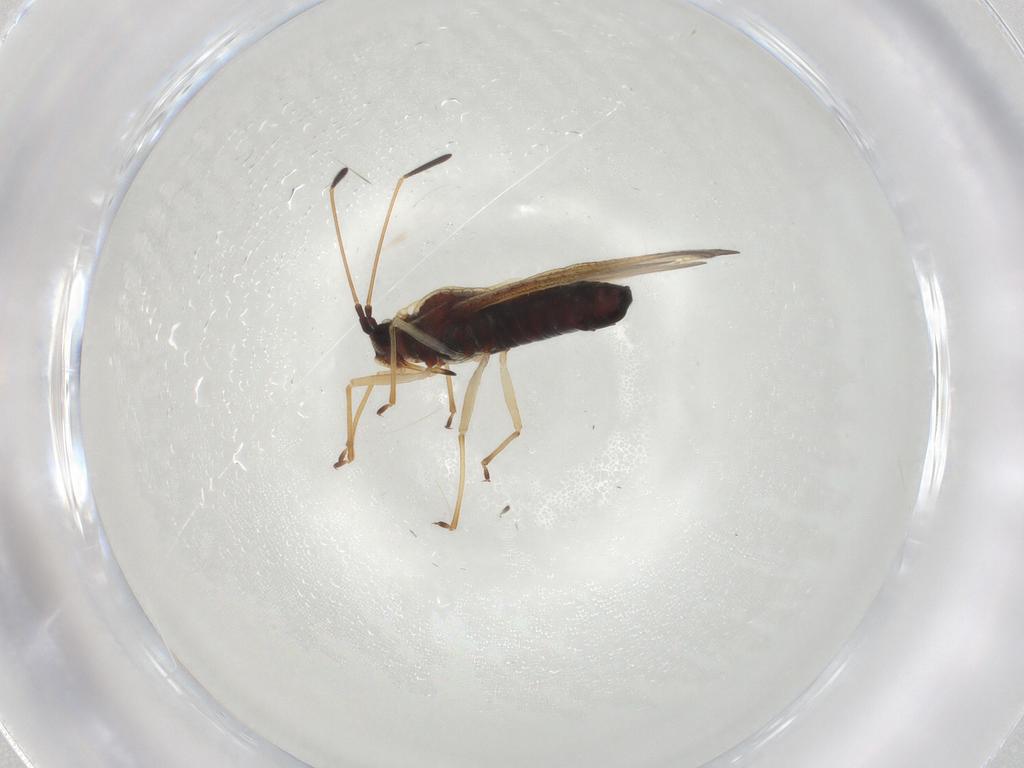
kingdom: Animalia
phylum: Arthropoda
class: Insecta
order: Hemiptera
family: Tingidae
